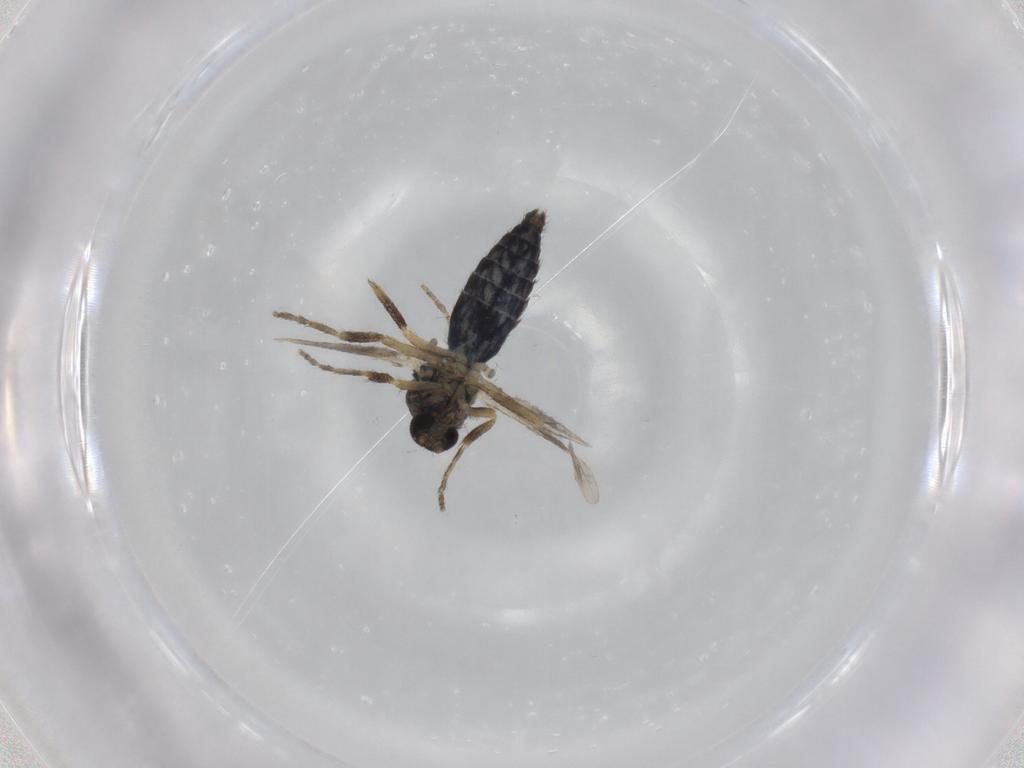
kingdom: Animalia
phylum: Arthropoda
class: Insecta
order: Diptera
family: Ceratopogonidae
